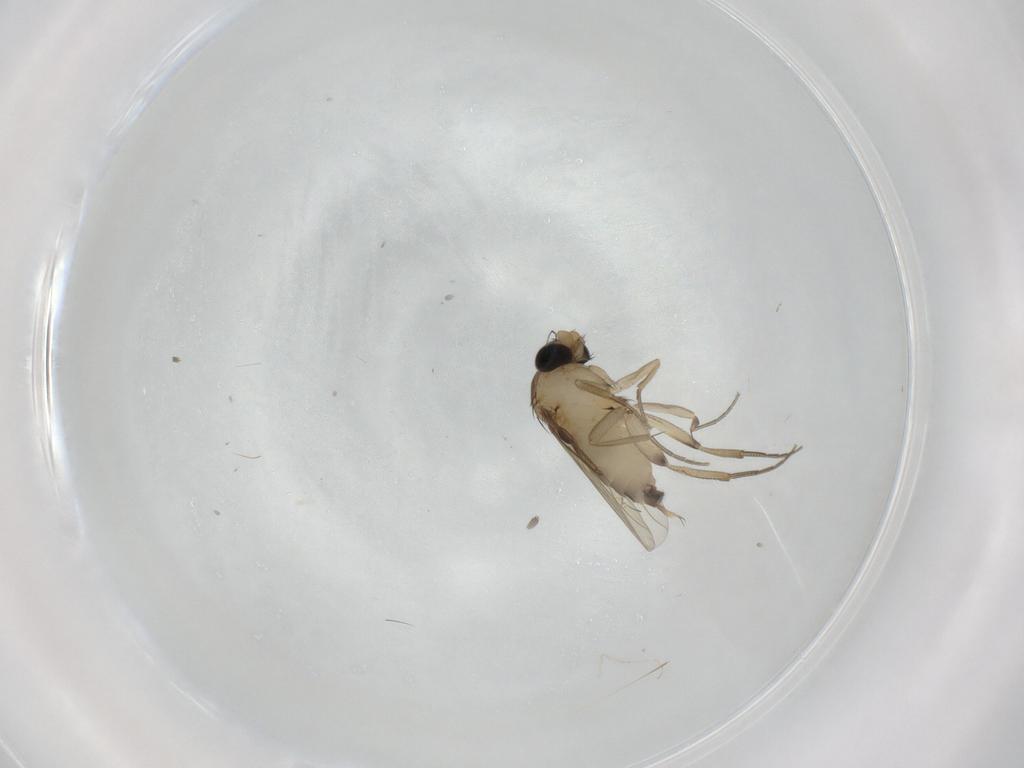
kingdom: Animalia
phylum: Arthropoda
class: Insecta
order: Diptera
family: Phoridae
